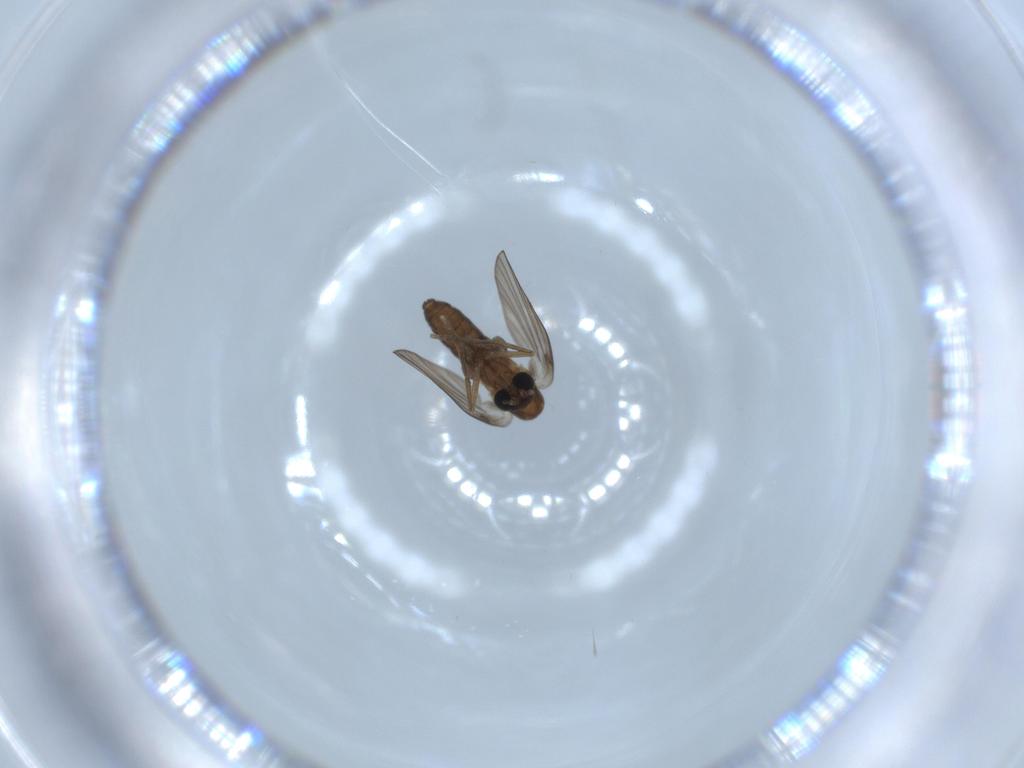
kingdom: Animalia
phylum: Arthropoda
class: Insecta
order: Diptera
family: Psychodidae
